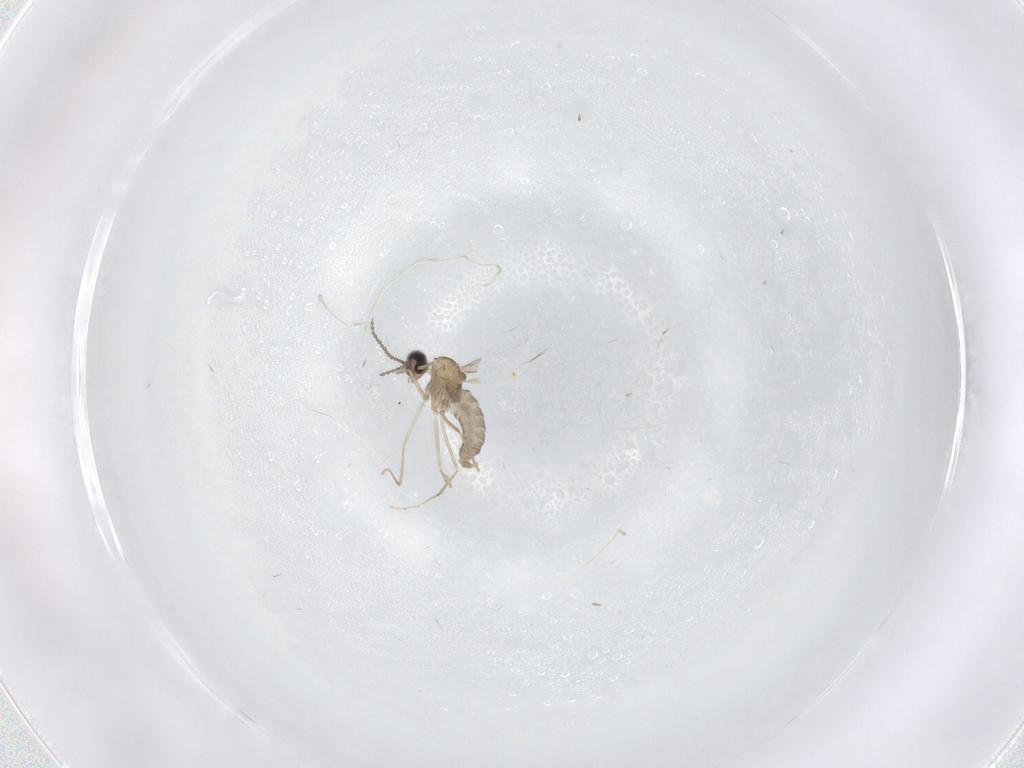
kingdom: Animalia
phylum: Arthropoda
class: Insecta
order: Diptera
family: Cecidomyiidae
